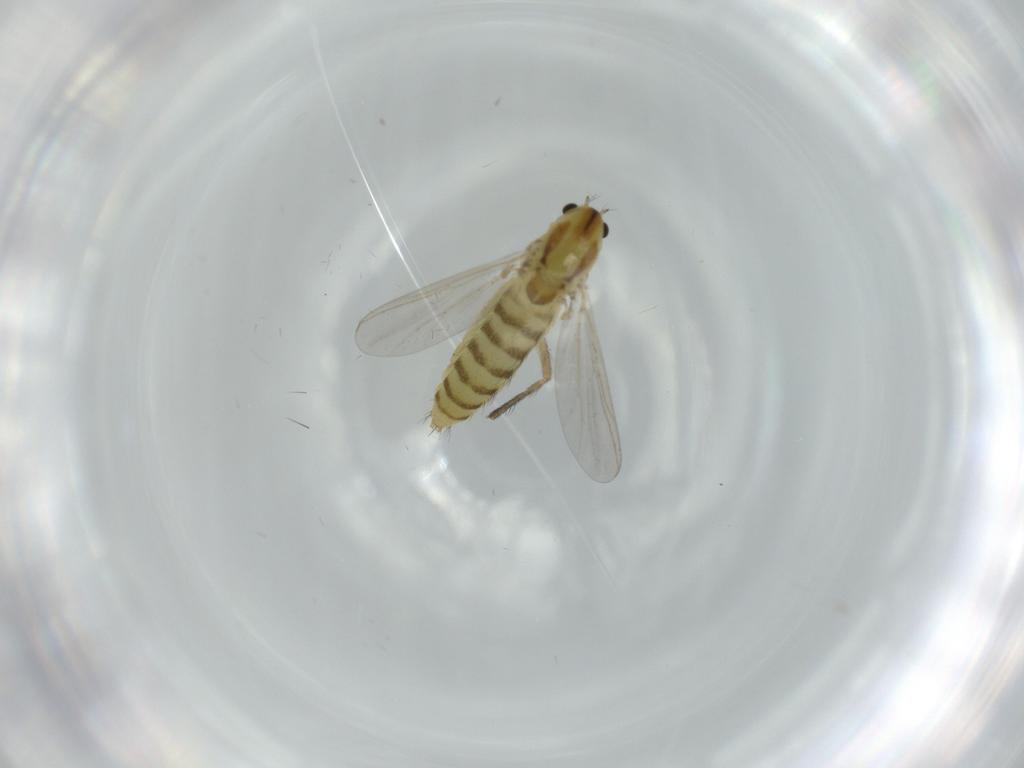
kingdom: Animalia
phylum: Arthropoda
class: Insecta
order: Diptera
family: Chironomidae
